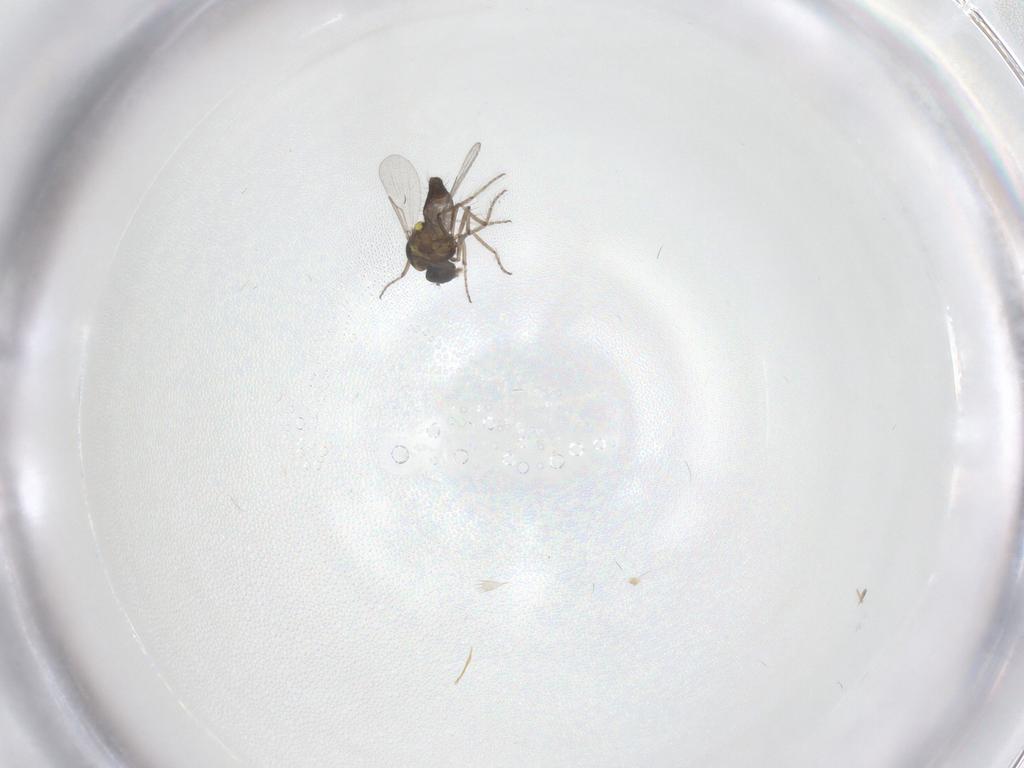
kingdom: Animalia
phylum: Arthropoda
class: Insecta
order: Diptera
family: Ceratopogonidae
